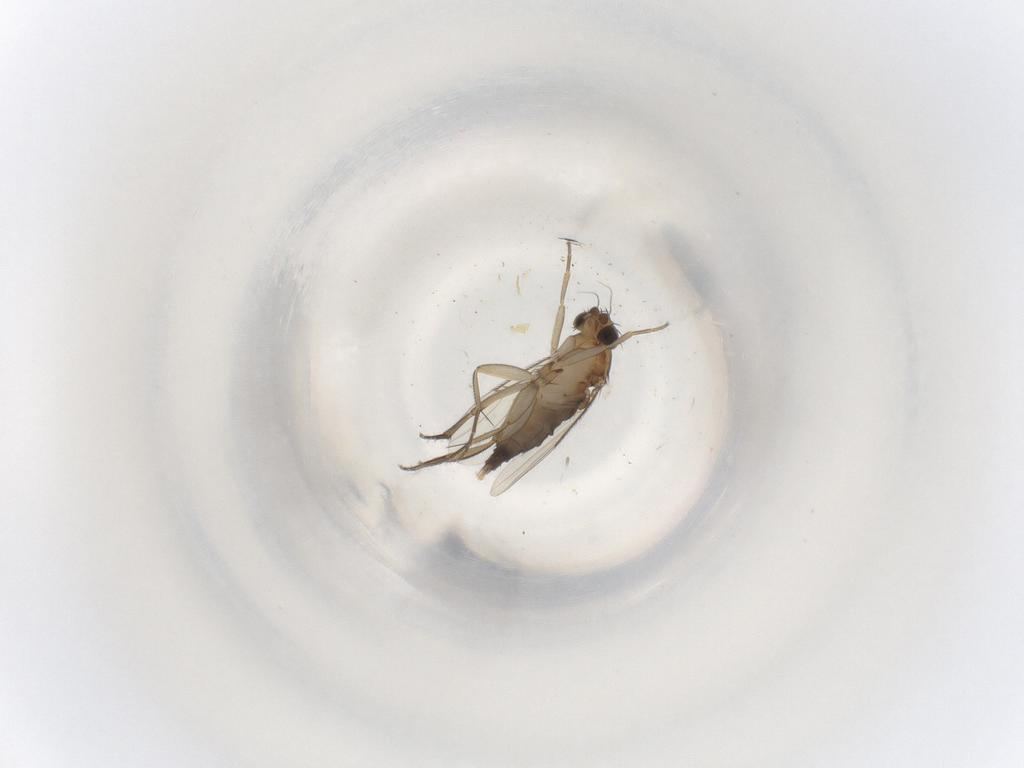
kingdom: Animalia
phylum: Arthropoda
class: Insecta
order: Diptera
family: Phoridae
